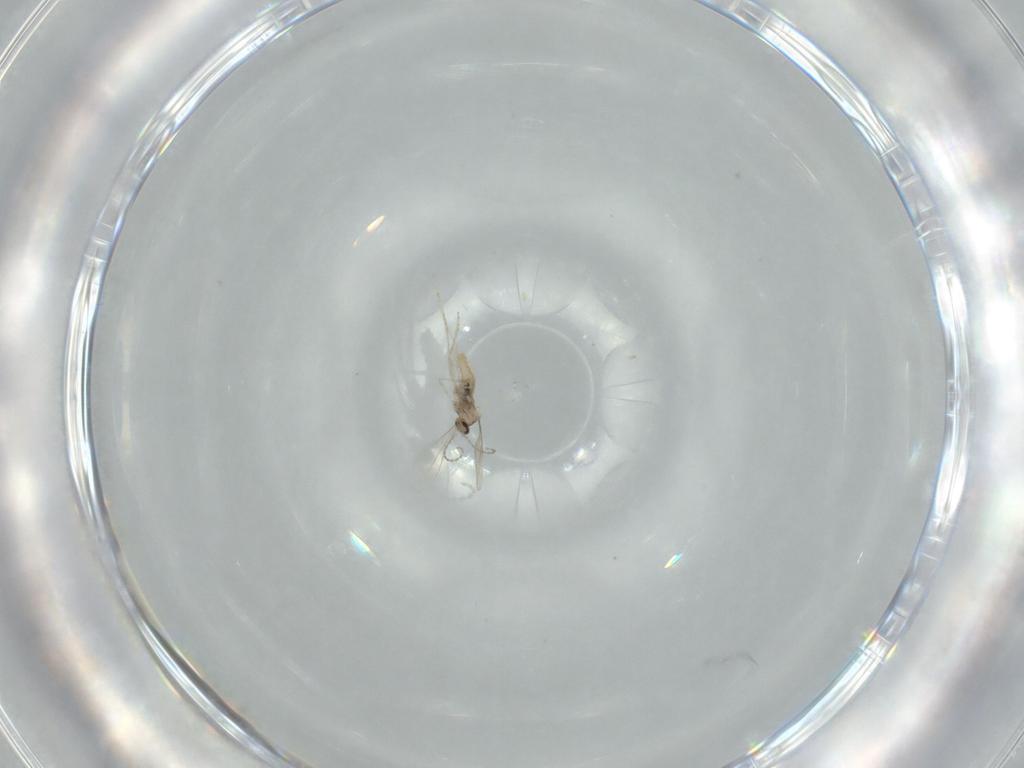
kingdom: Animalia
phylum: Arthropoda
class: Insecta
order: Diptera
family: Cecidomyiidae
